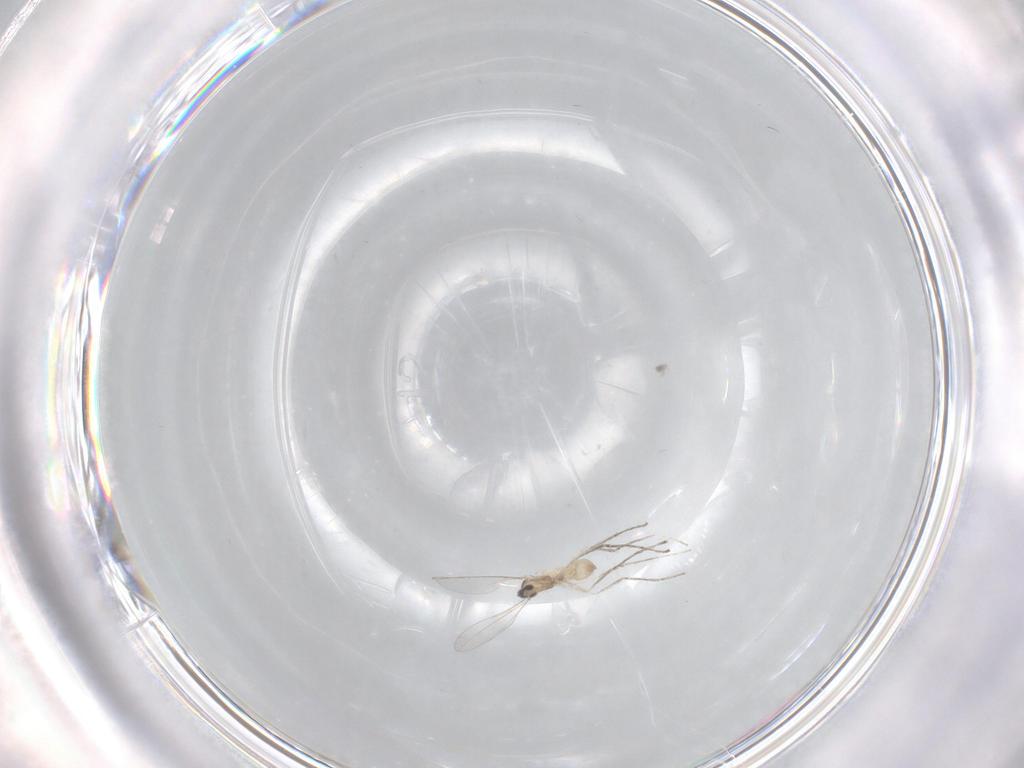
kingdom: Animalia
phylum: Arthropoda
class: Insecta
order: Diptera
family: Cecidomyiidae
